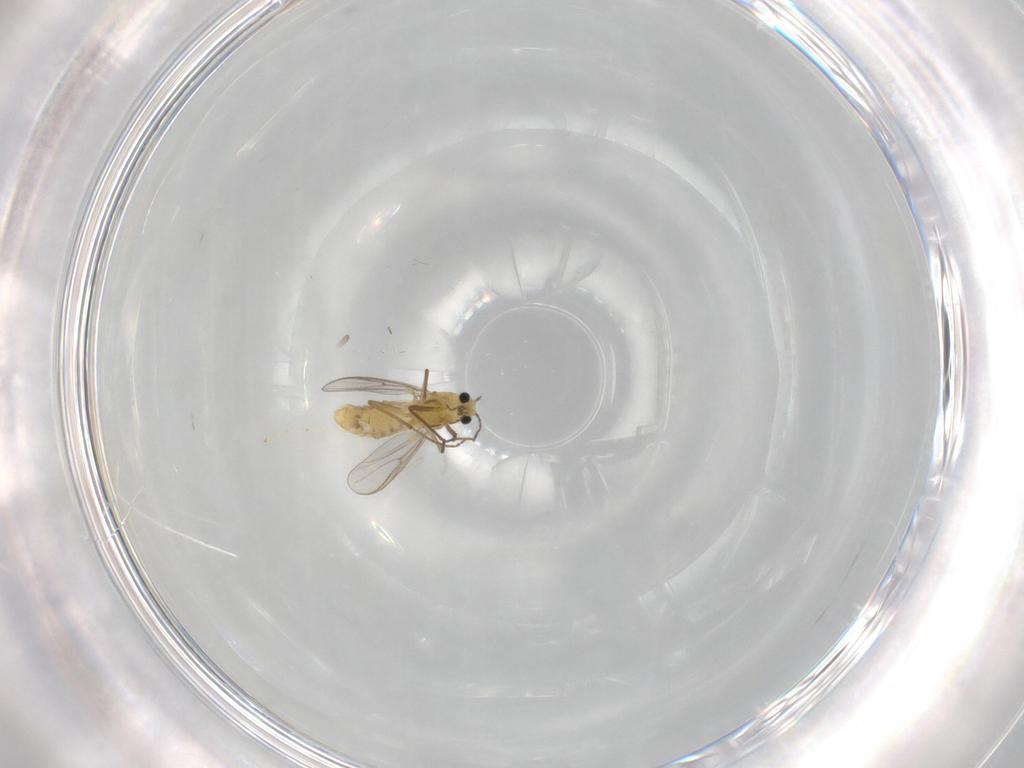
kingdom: Animalia
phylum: Arthropoda
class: Insecta
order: Diptera
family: Chironomidae
